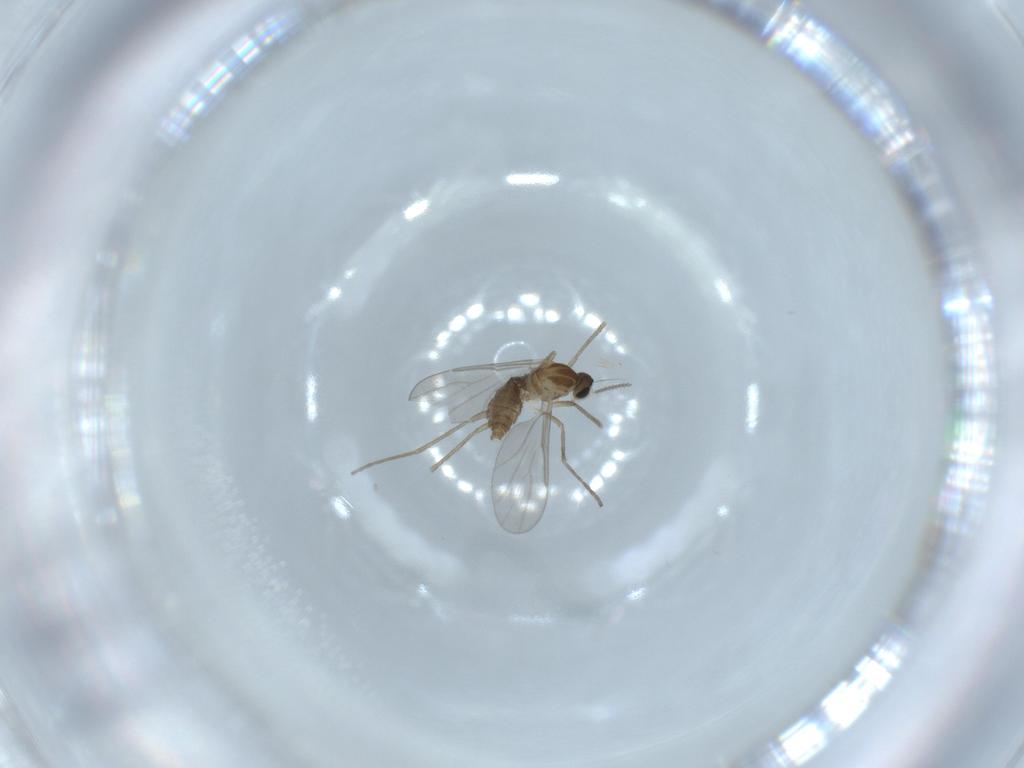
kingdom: Animalia
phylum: Arthropoda
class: Insecta
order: Diptera
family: Cecidomyiidae
